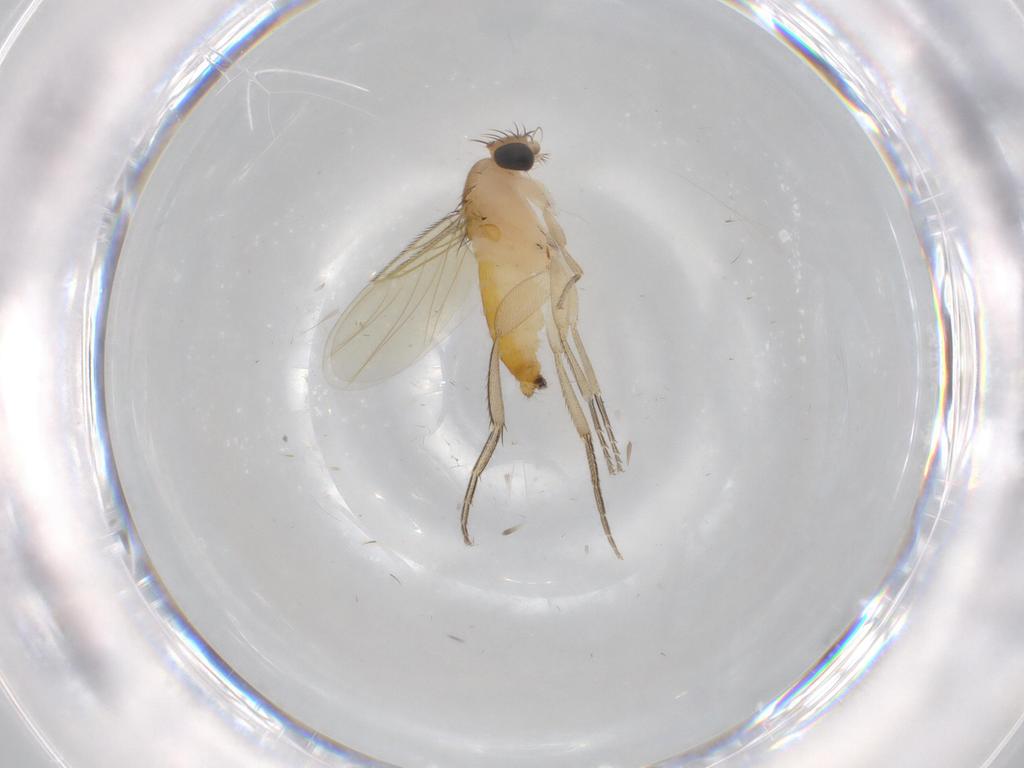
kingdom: Animalia
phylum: Arthropoda
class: Insecta
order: Diptera
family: Phoridae
